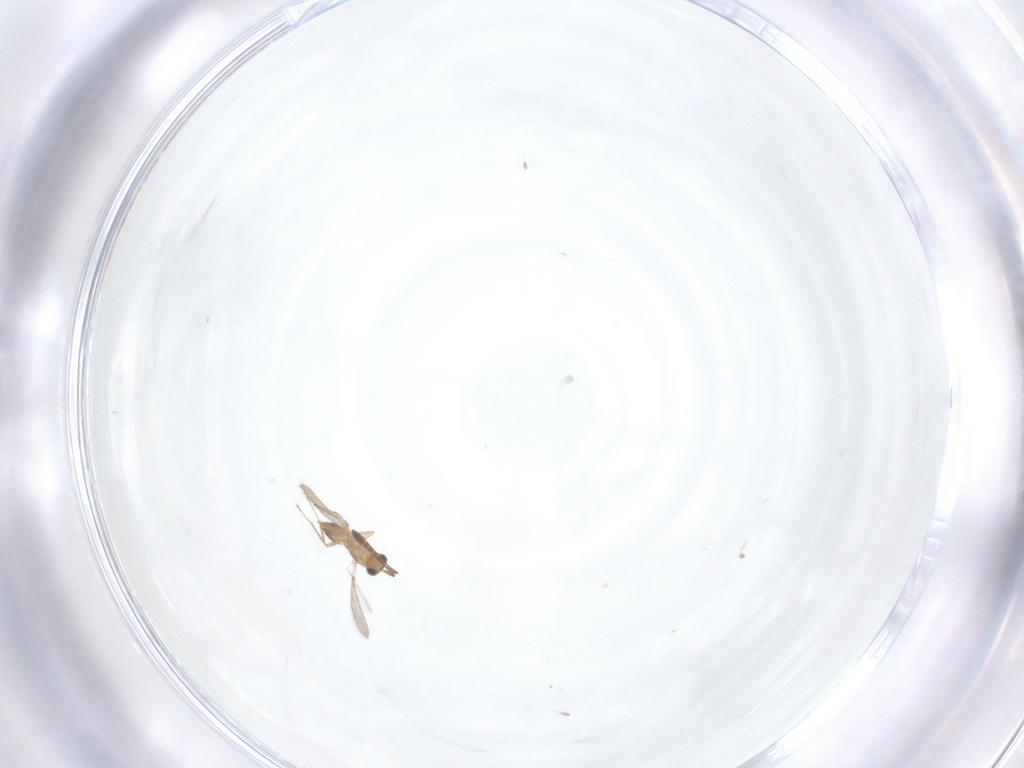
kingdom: Animalia
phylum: Arthropoda
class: Insecta
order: Hymenoptera
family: Mymaridae
